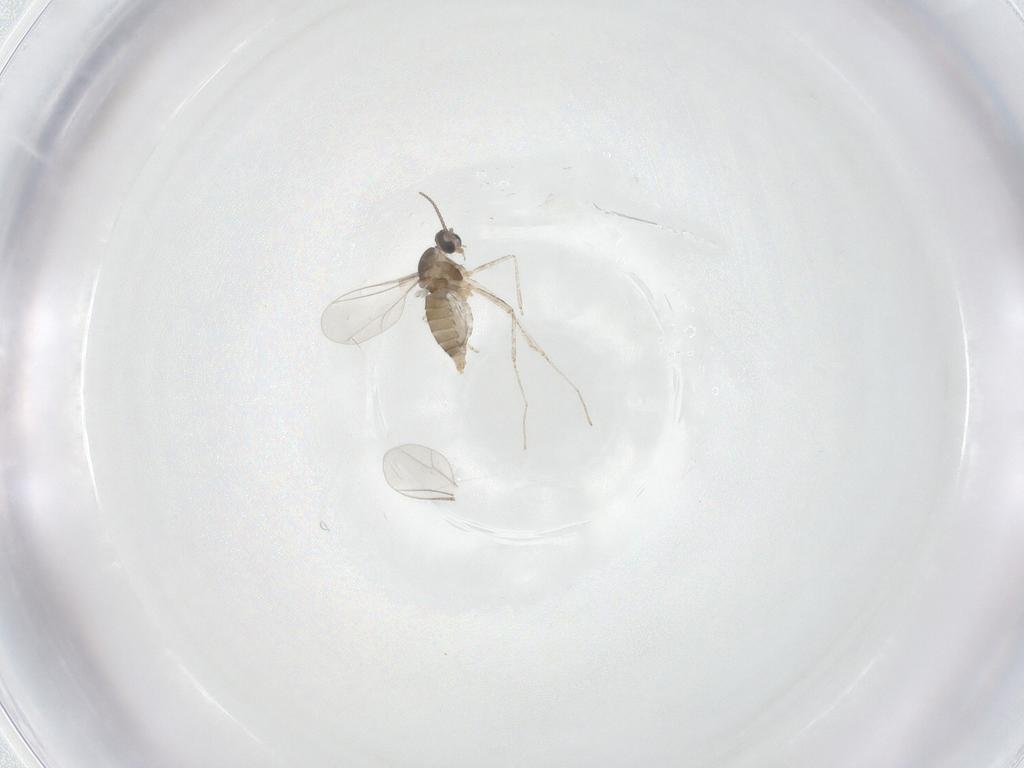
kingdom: Animalia
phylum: Arthropoda
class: Insecta
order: Diptera
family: Cecidomyiidae
